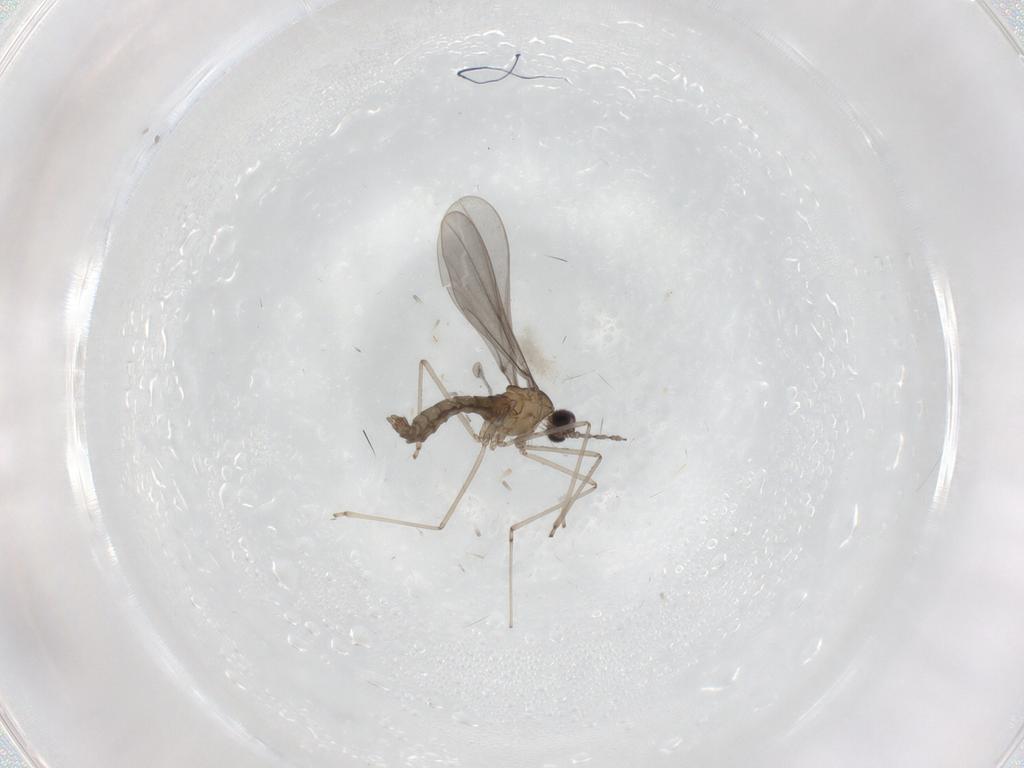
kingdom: Animalia
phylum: Arthropoda
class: Insecta
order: Diptera
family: Cecidomyiidae
